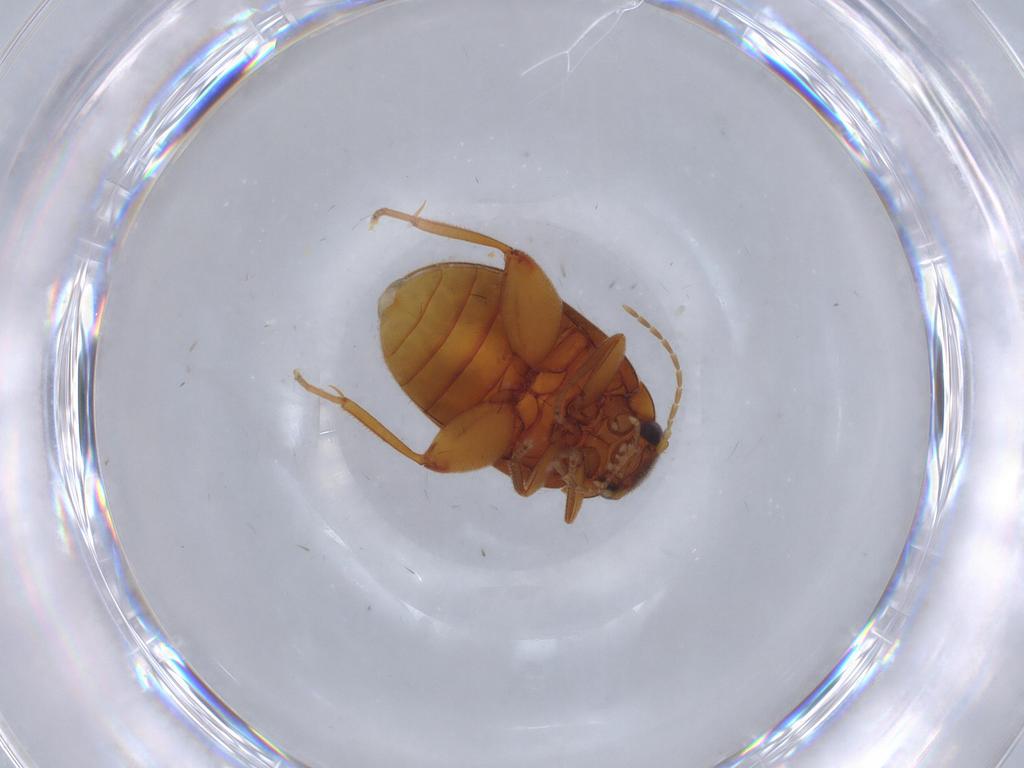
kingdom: Animalia
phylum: Arthropoda
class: Insecta
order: Coleoptera
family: Scirtidae
